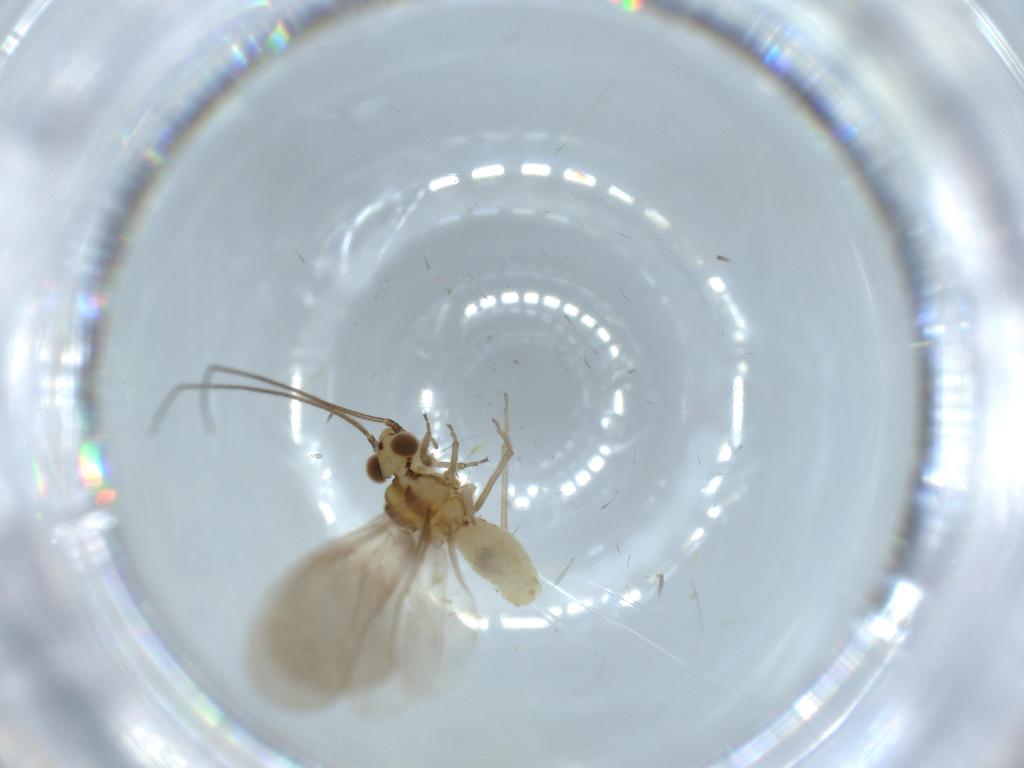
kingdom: Animalia
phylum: Arthropoda
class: Insecta
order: Psocodea
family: Caeciliusidae
